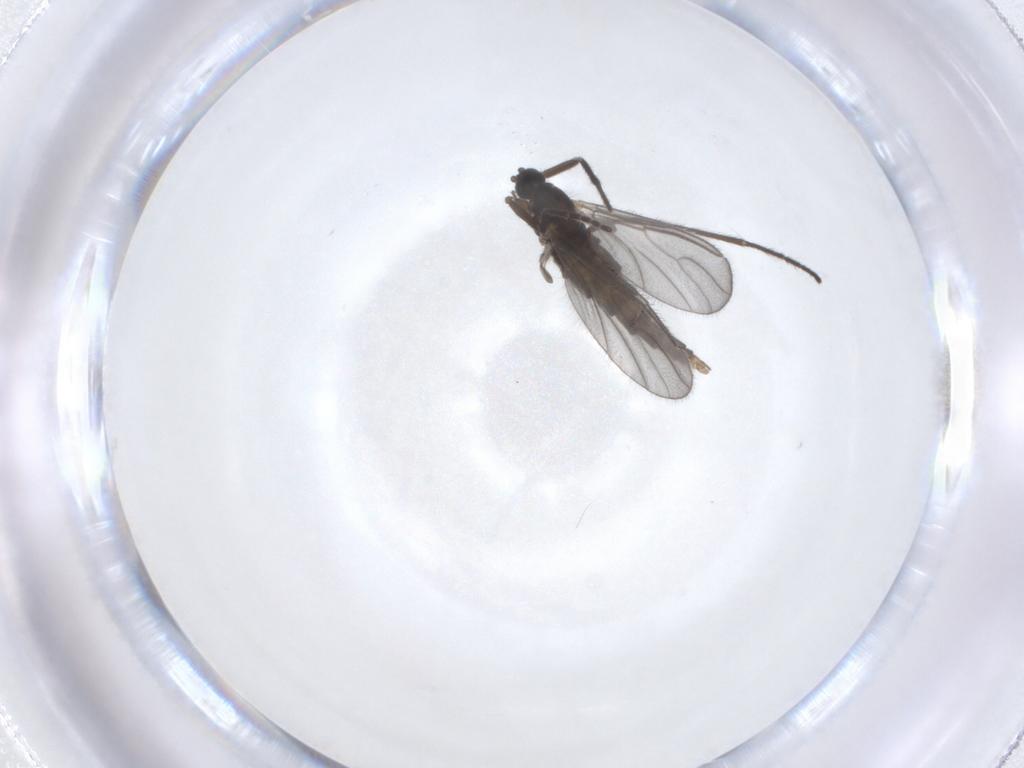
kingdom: Animalia
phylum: Arthropoda
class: Insecta
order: Diptera
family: Cecidomyiidae
